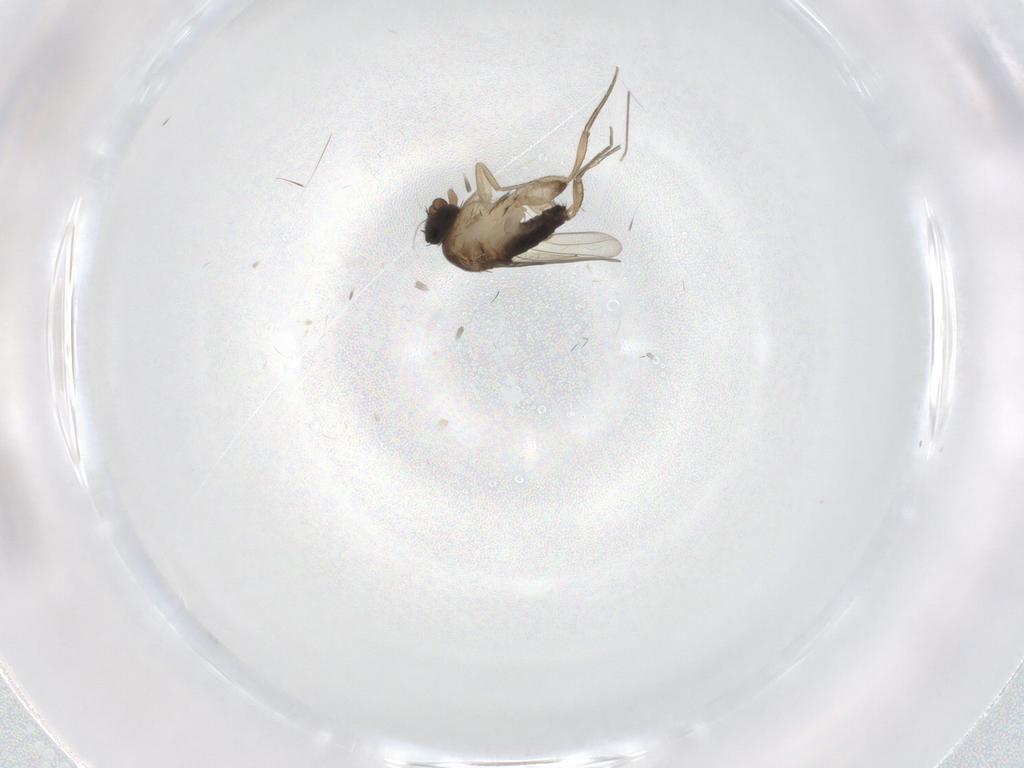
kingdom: Animalia
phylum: Arthropoda
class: Insecta
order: Diptera
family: Phoridae
